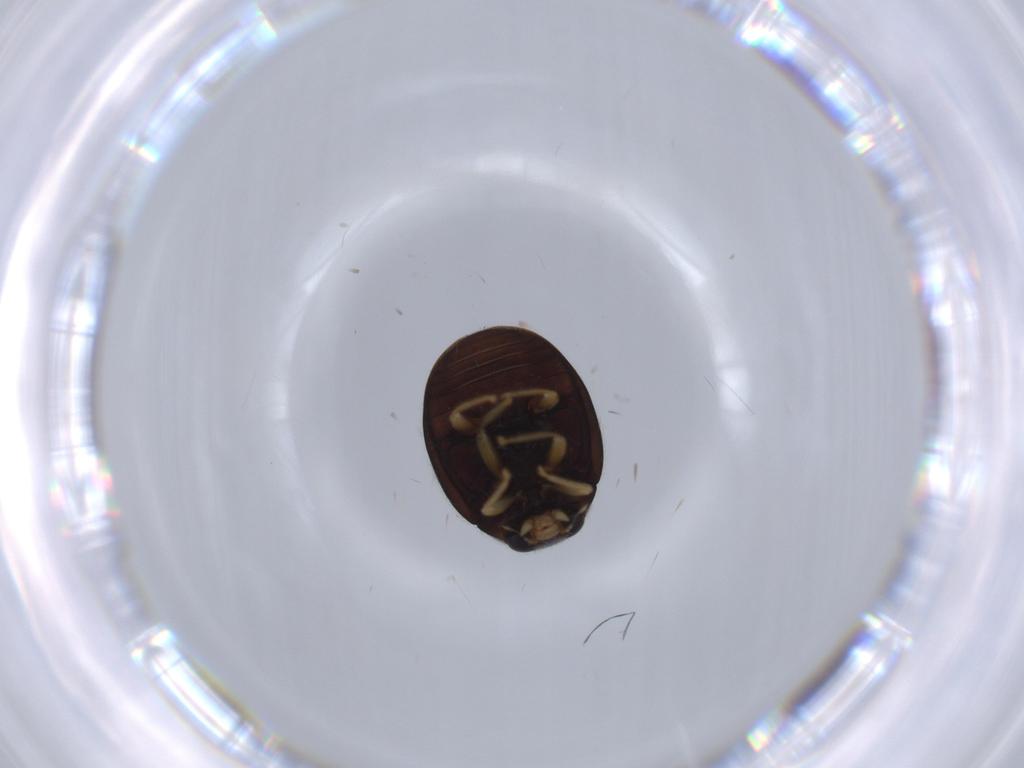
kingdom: Animalia
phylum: Arthropoda
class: Insecta
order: Coleoptera
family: Coccinellidae
